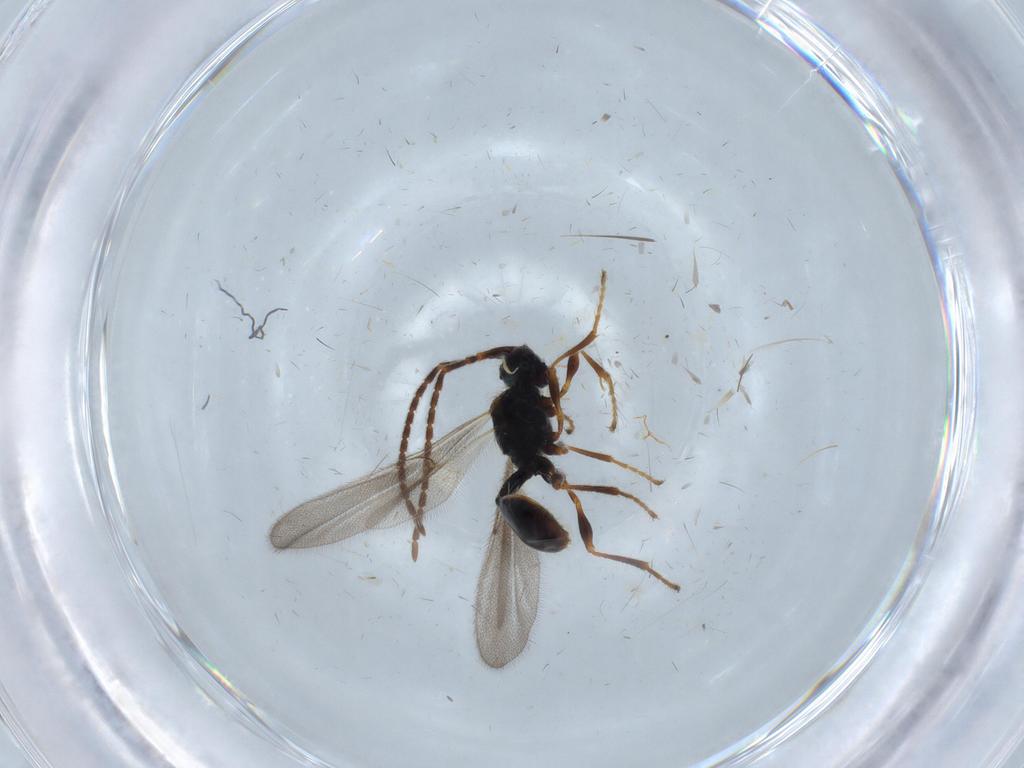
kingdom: Animalia
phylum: Arthropoda
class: Insecta
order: Hymenoptera
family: Diapriidae
